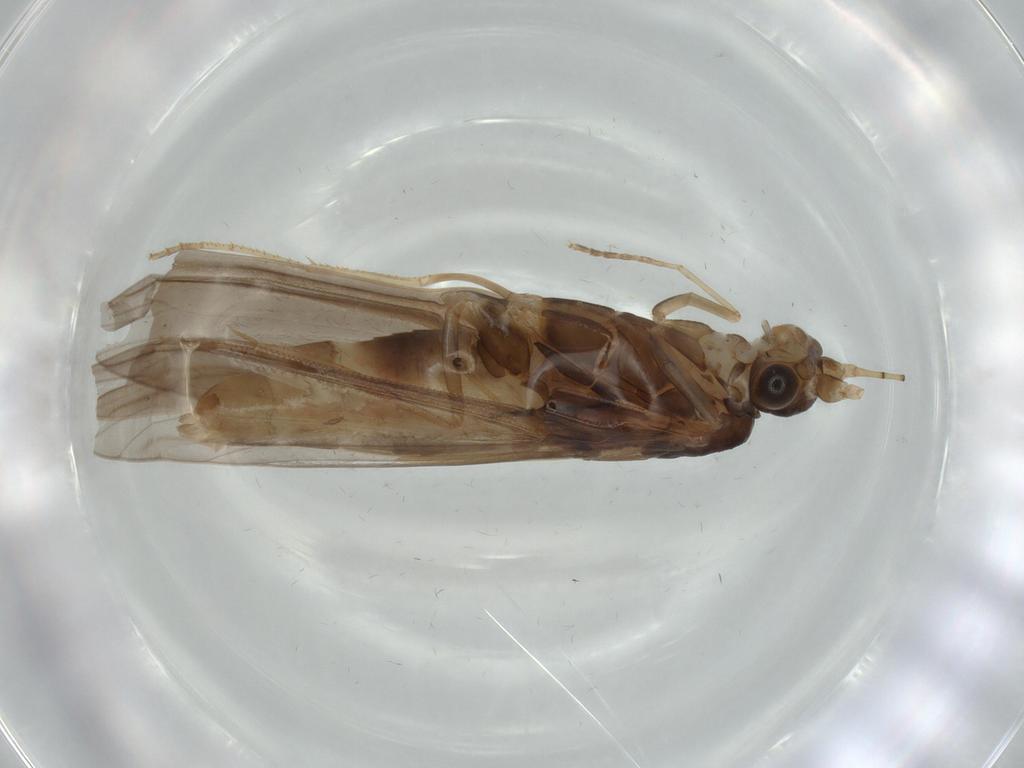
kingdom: Animalia
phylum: Arthropoda
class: Insecta
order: Trichoptera
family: Leptoceridae
